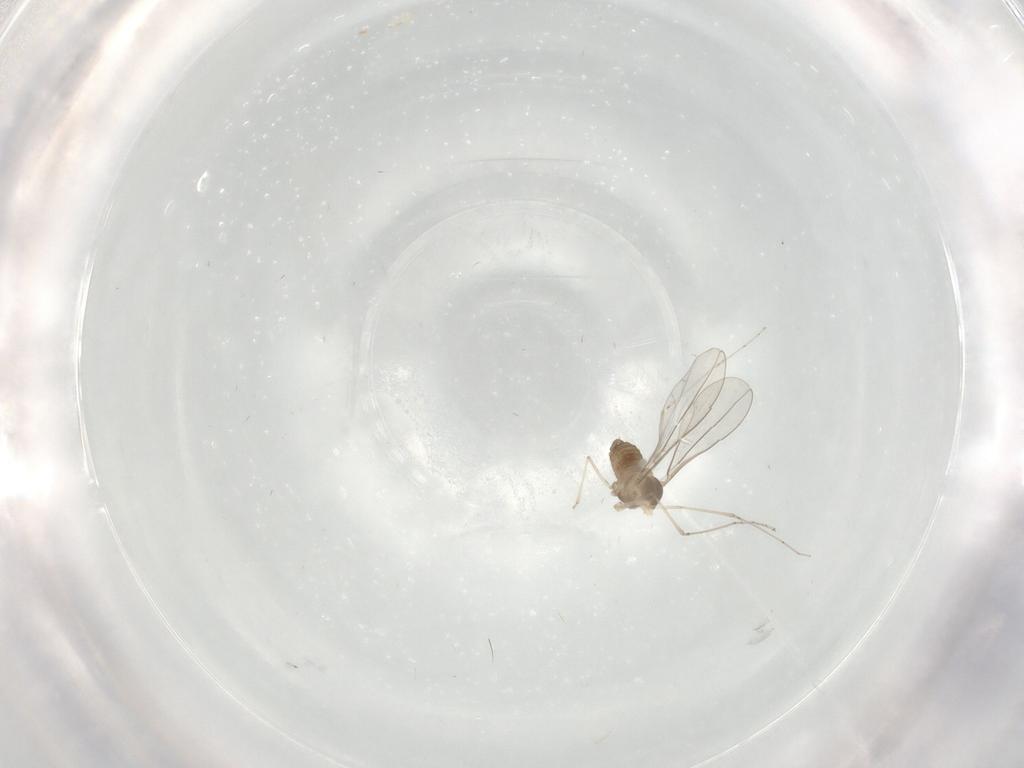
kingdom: Animalia
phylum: Arthropoda
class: Insecta
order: Diptera
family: Cecidomyiidae
